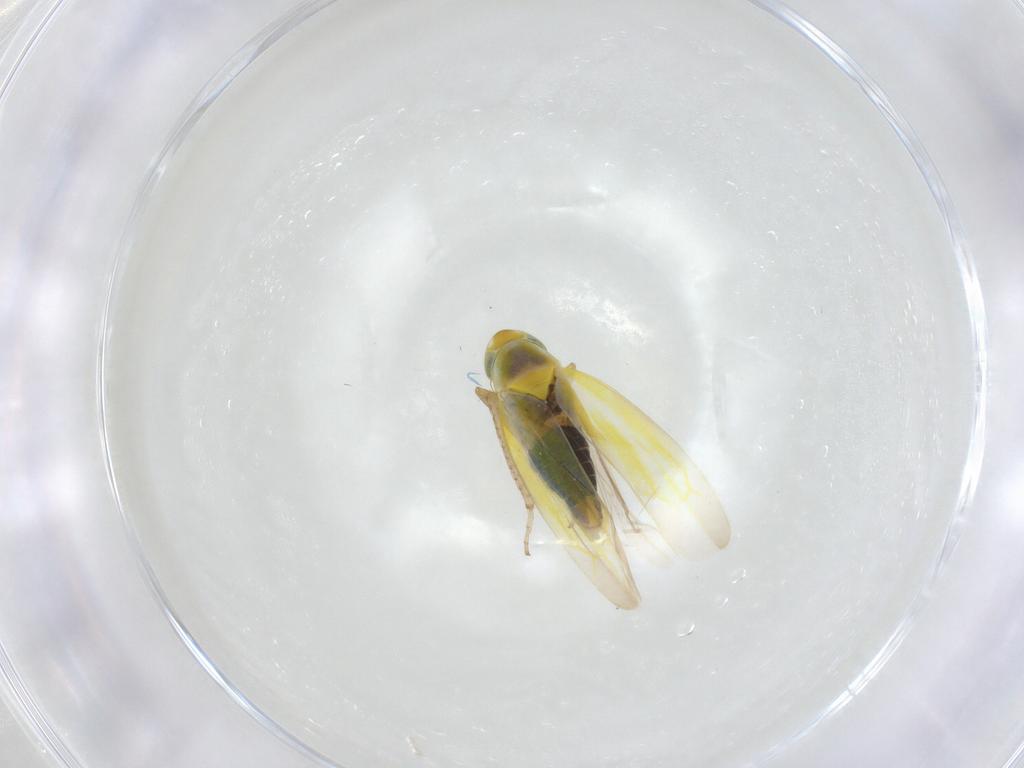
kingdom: Animalia
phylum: Arthropoda
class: Insecta
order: Hemiptera
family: Cicadellidae
